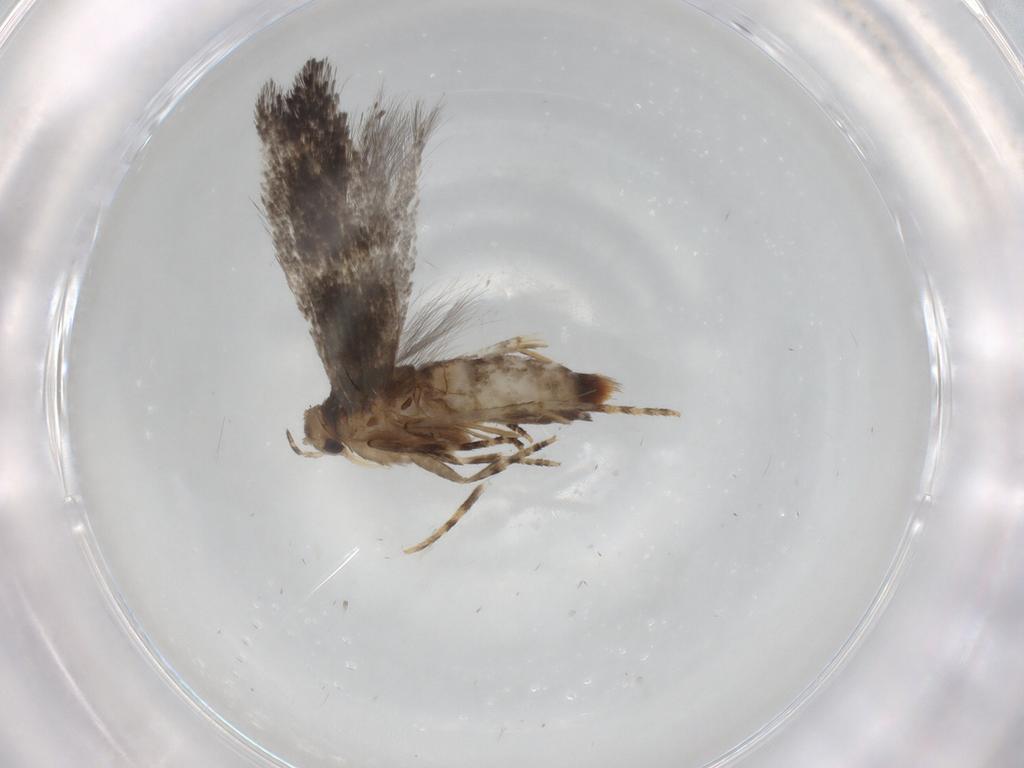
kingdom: Animalia
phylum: Arthropoda
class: Insecta
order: Lepidoptera
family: Elachistidae
